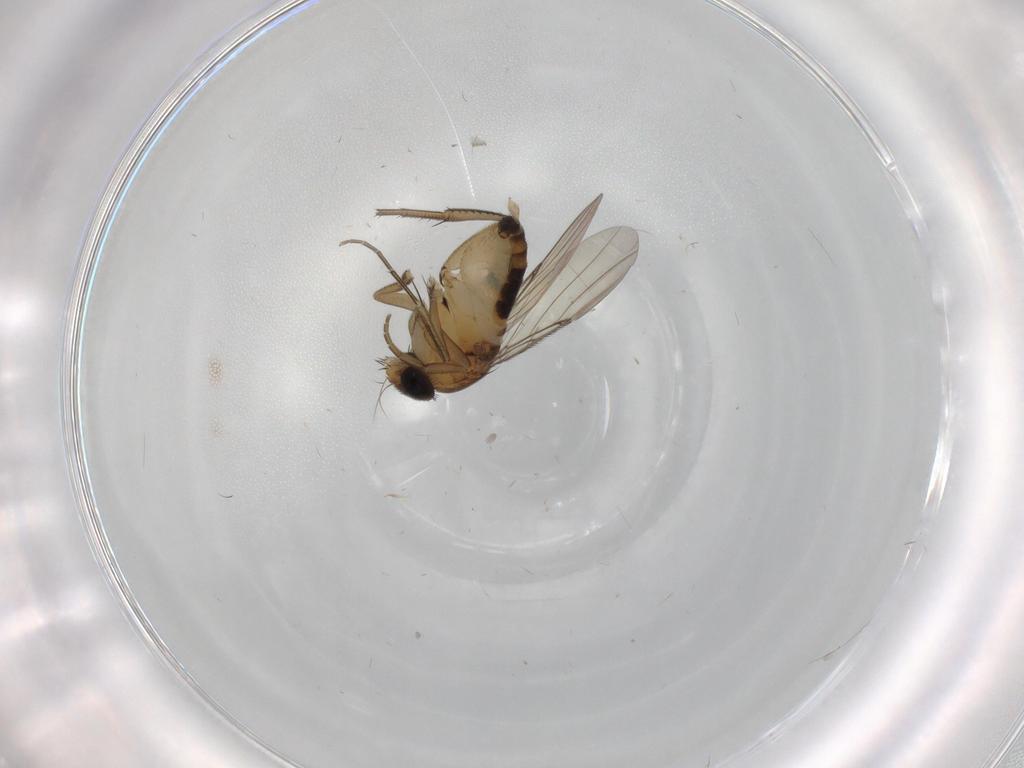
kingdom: Animalia
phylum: Arthropoda
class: Insecta
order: Diptera
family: Phoridae
